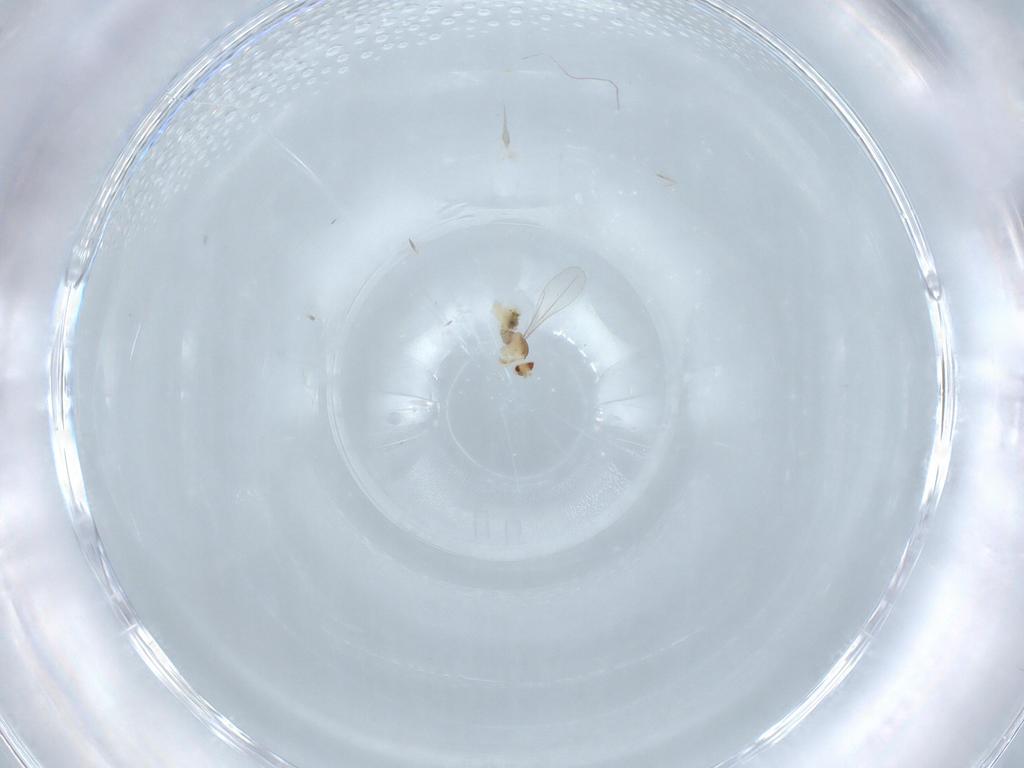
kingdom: Animalia
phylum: Arthropoda
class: Insecta
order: Diptera
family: Cecidomyiidae
